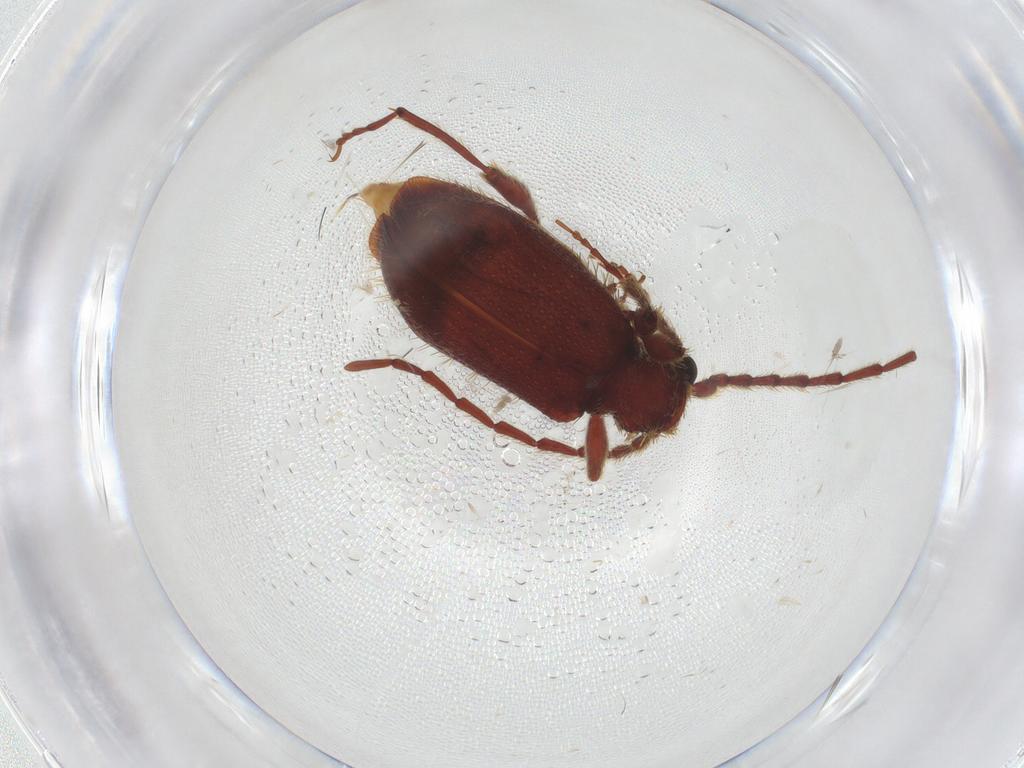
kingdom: Animalia
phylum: Arthropoda
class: Insecta
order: Coleoptera
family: Ptinidae
